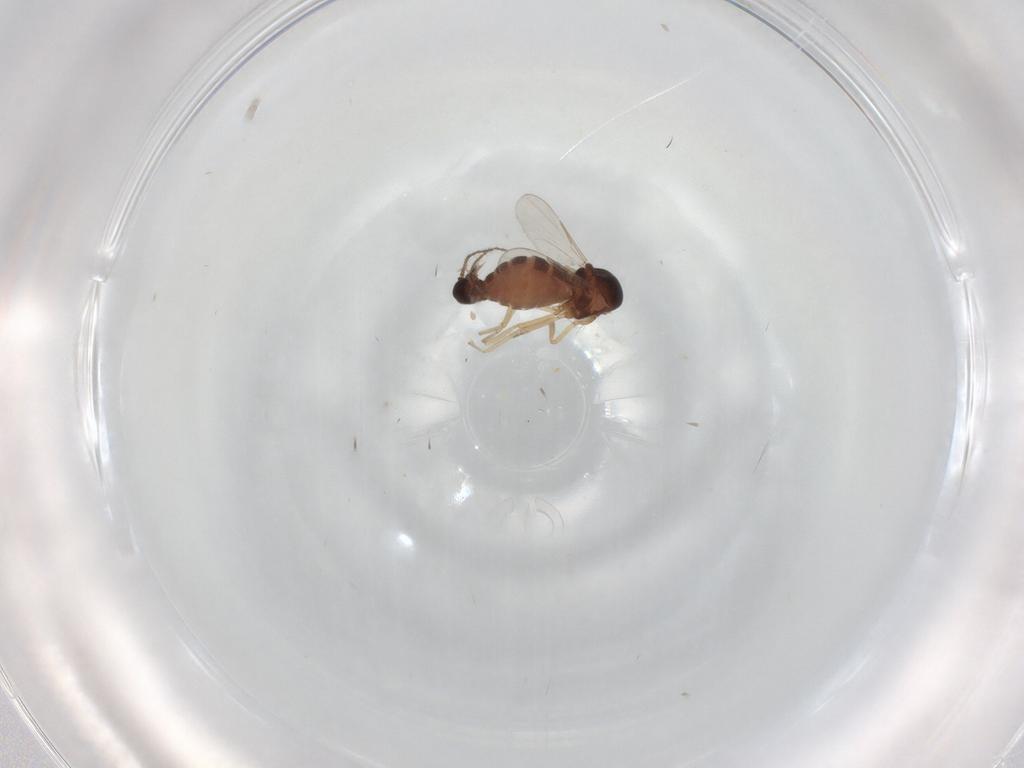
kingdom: Animalia
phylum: Arthropoda
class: Insecta
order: Diptera
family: Ceratopogonidae
